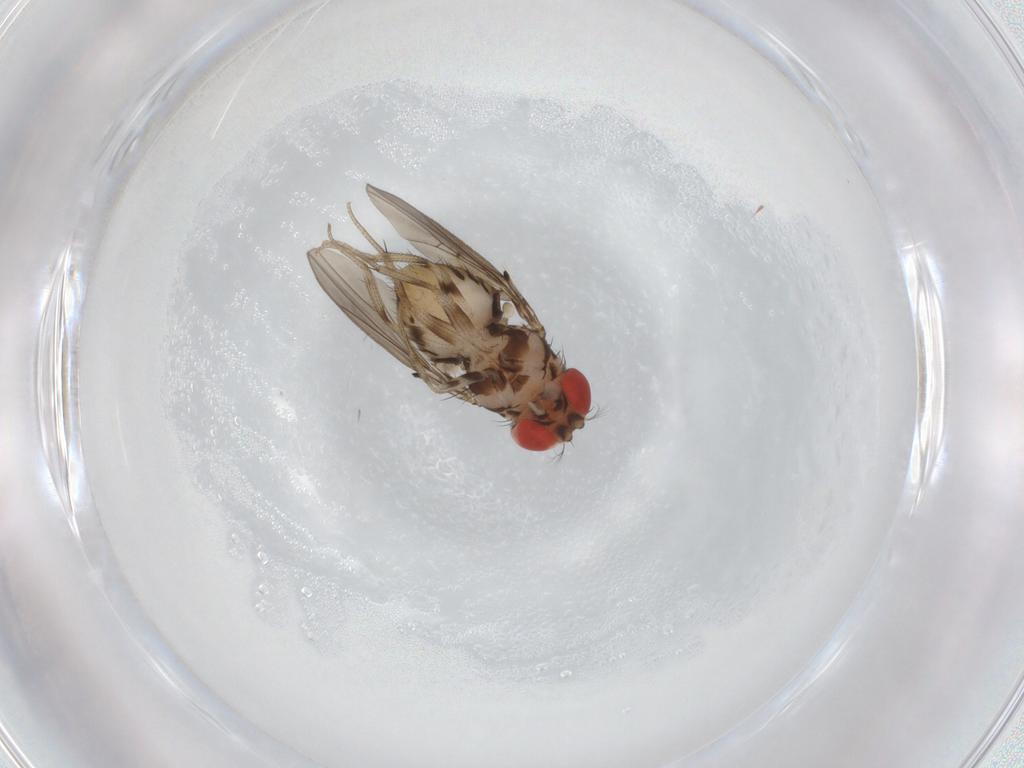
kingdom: Animalia
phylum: Arthropoda
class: Insecta
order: Diptera
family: Drosophilidae
